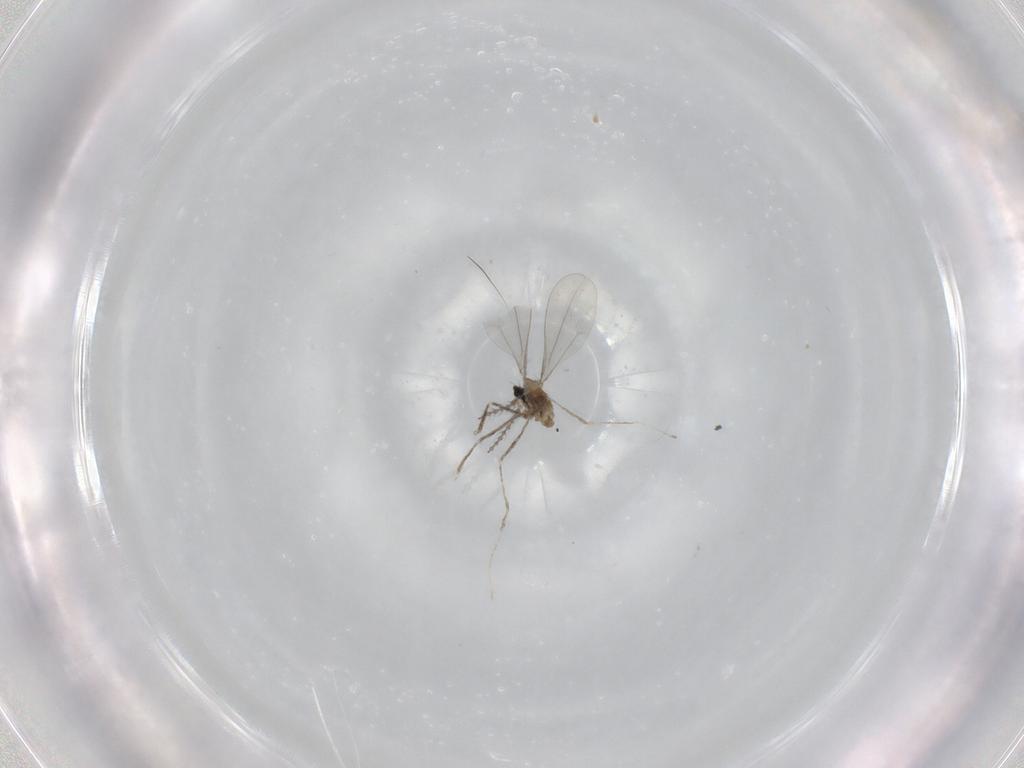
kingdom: Animalia
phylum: Arthropoda
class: Insecta
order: Diptera
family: Cecidomyiidae
